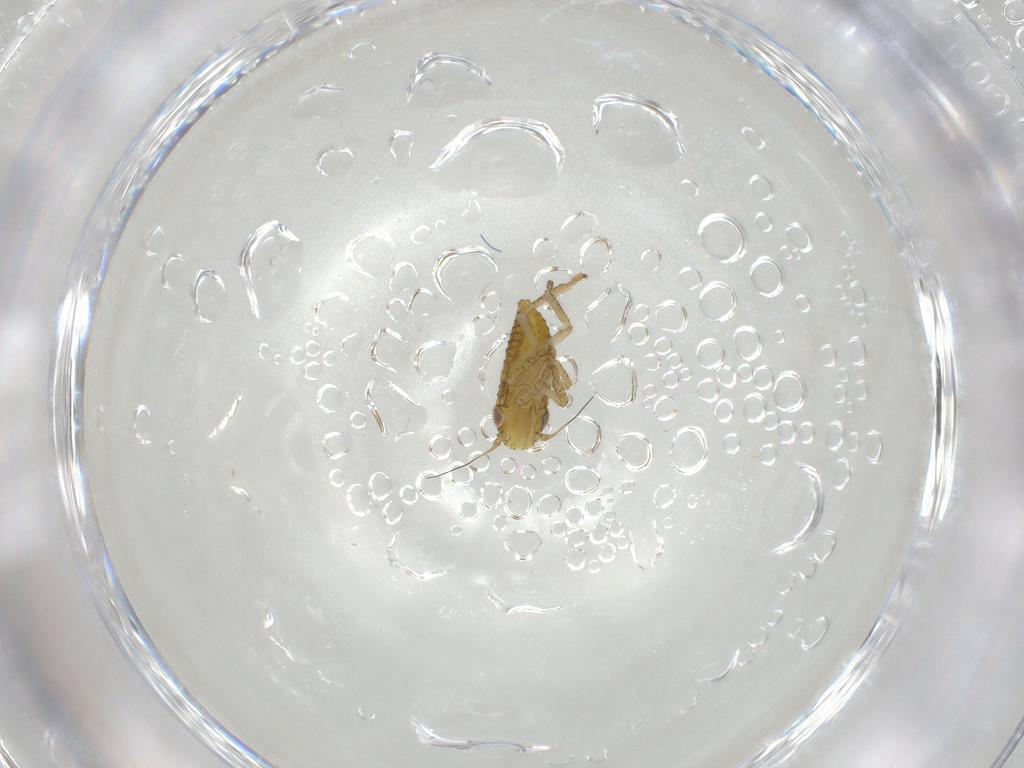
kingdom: Animalia
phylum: Arthropoda
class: Insecta
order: Hemiptera
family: Cicadellidae
